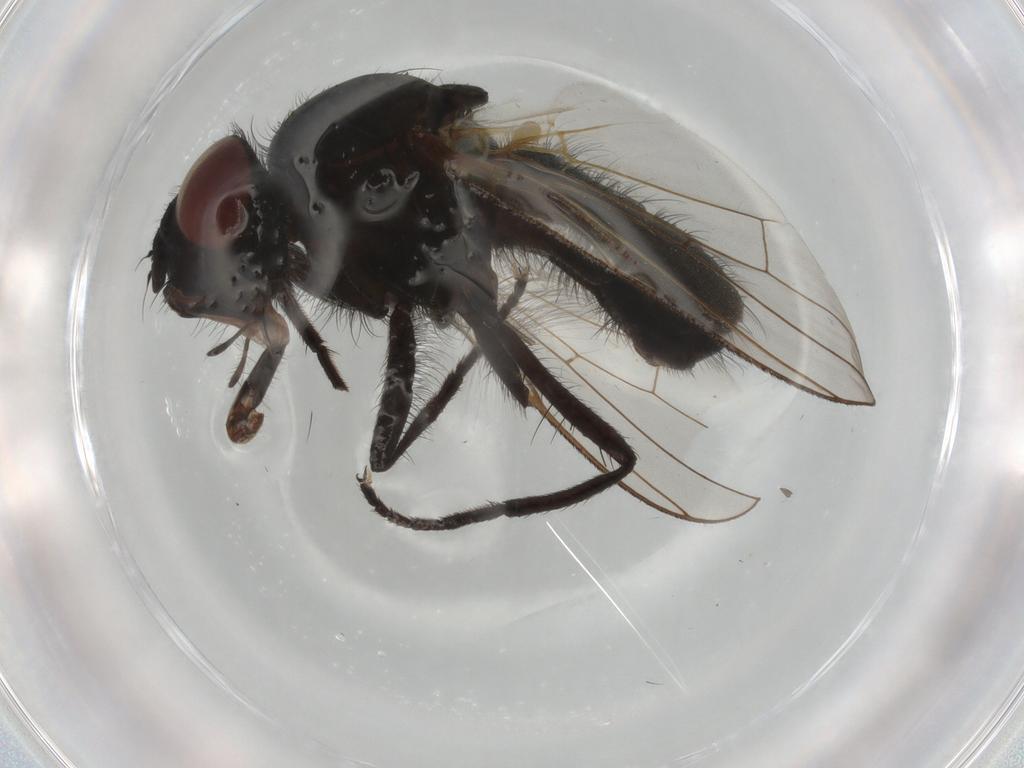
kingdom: Animalia
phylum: Arthropoda
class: Insecta
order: Diptera
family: Anthomyiidae
